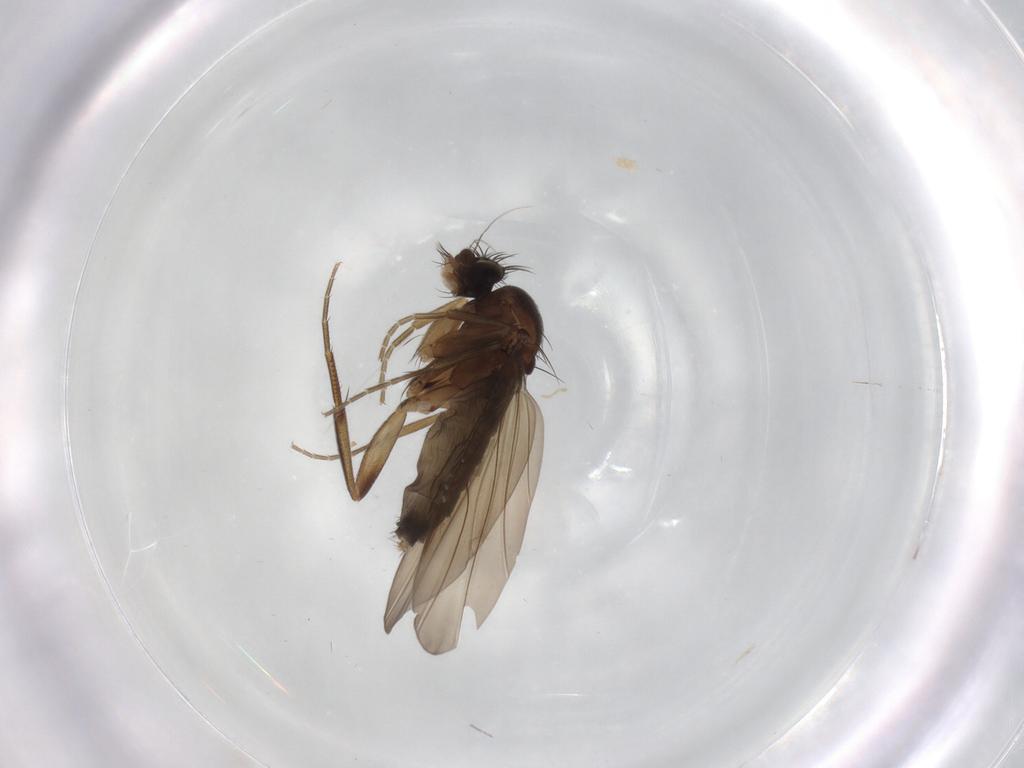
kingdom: Animalia
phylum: Arthropoda
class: Insecta
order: Diptera
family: Phoridae
